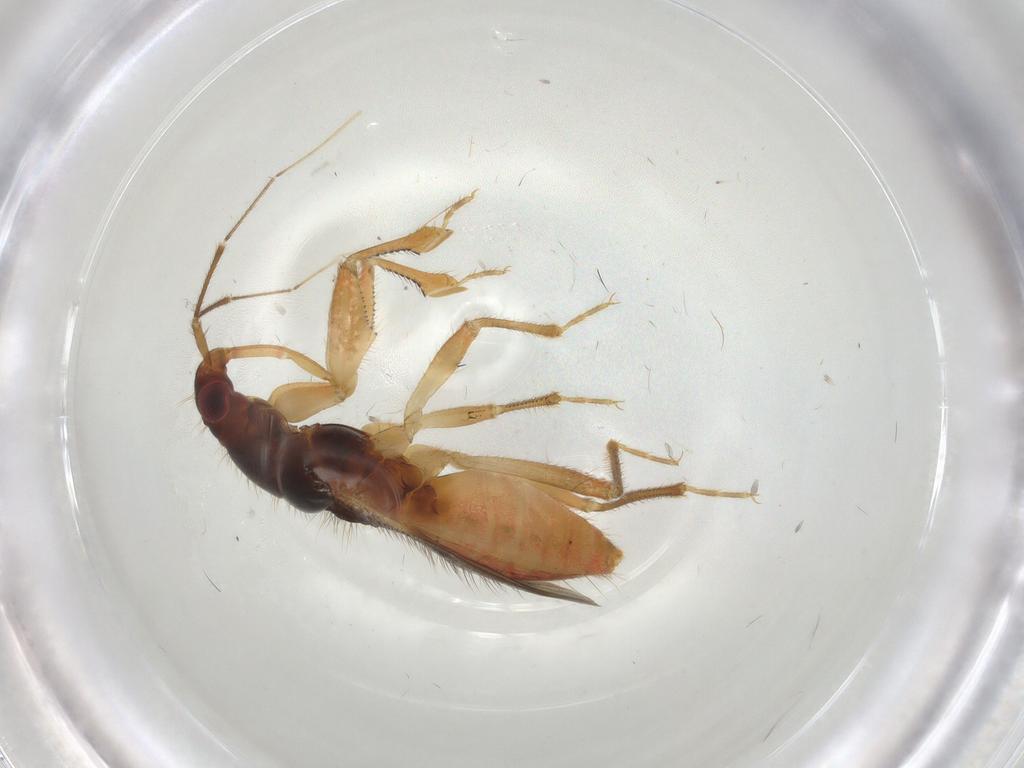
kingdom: Animalia
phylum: Arthropoda
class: Insecta
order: Hemiptera
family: Nabidae
